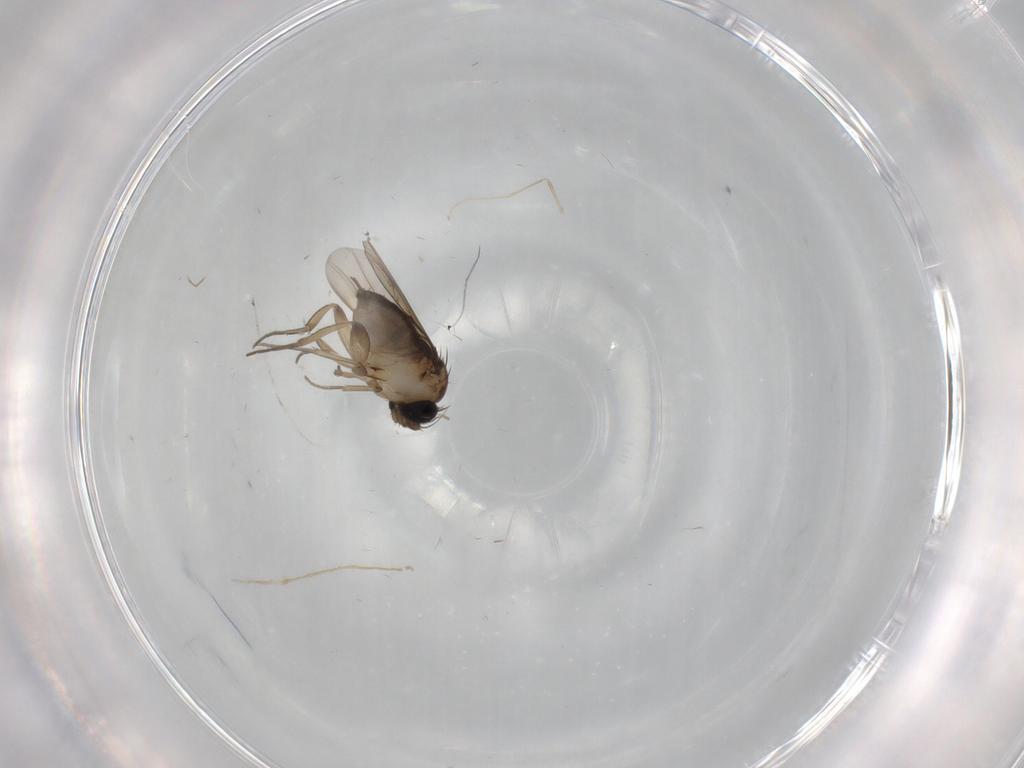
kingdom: Animalia
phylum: Arthropoda
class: Insecta
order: Diptera
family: Phoridae
